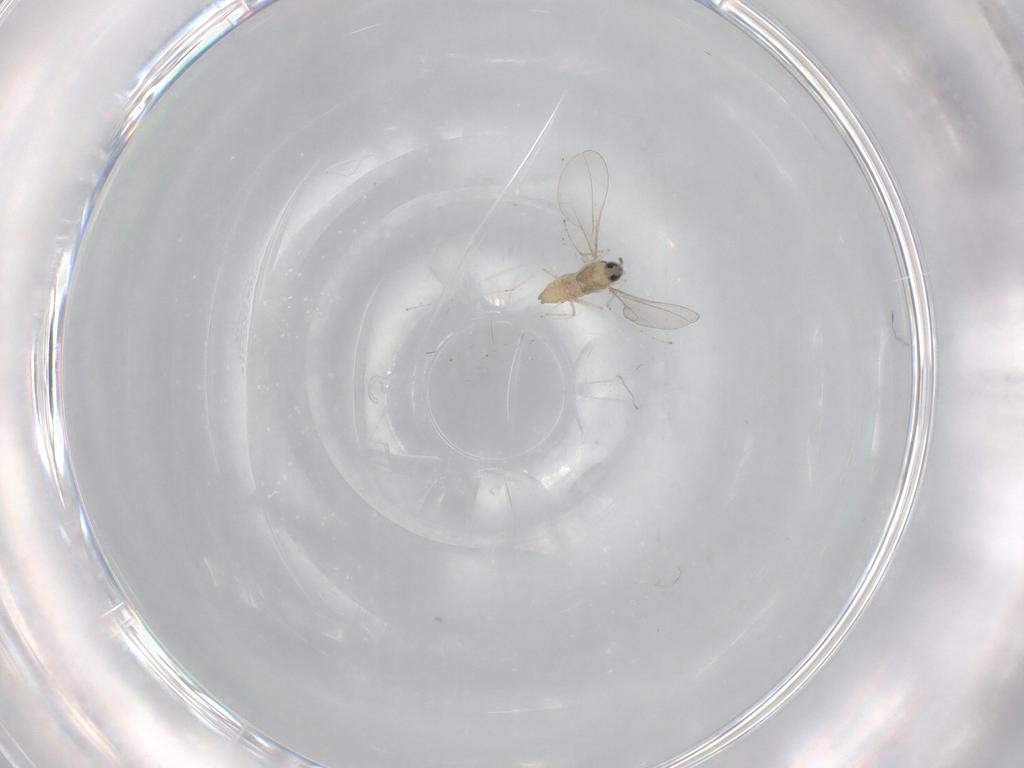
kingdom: Animalia
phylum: Arthropoda
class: Insecta
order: Diptera
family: Cecidomyiidae
